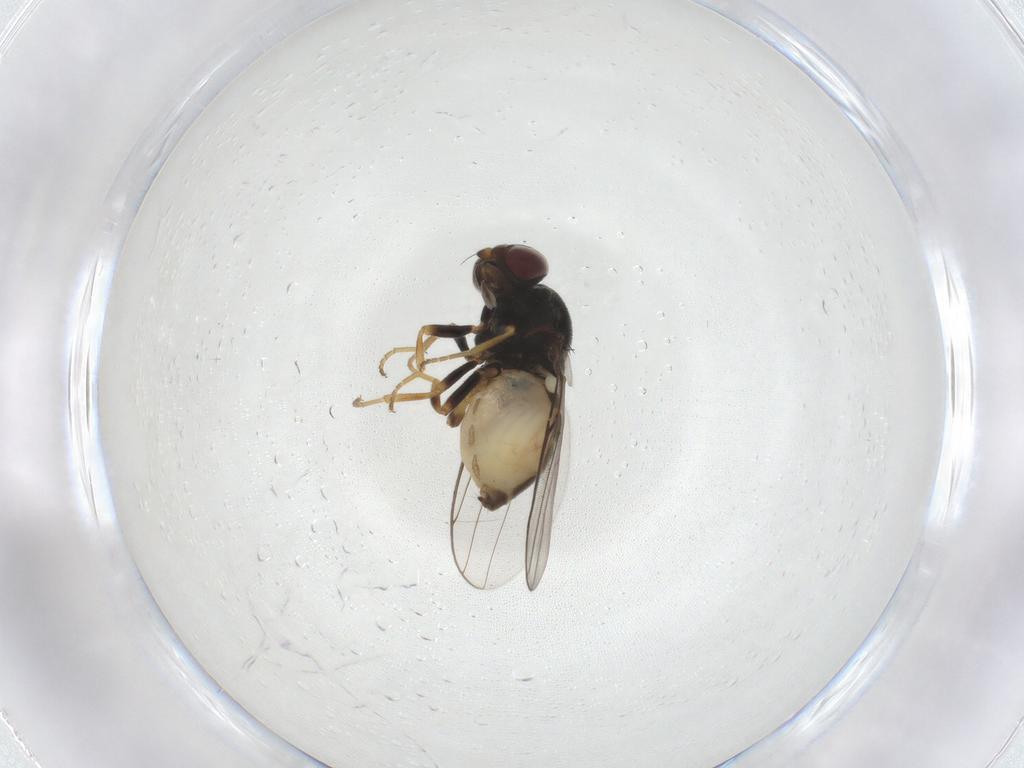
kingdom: Animalia
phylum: Arthropoda
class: Insecta
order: Diptera
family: Chloropidae
